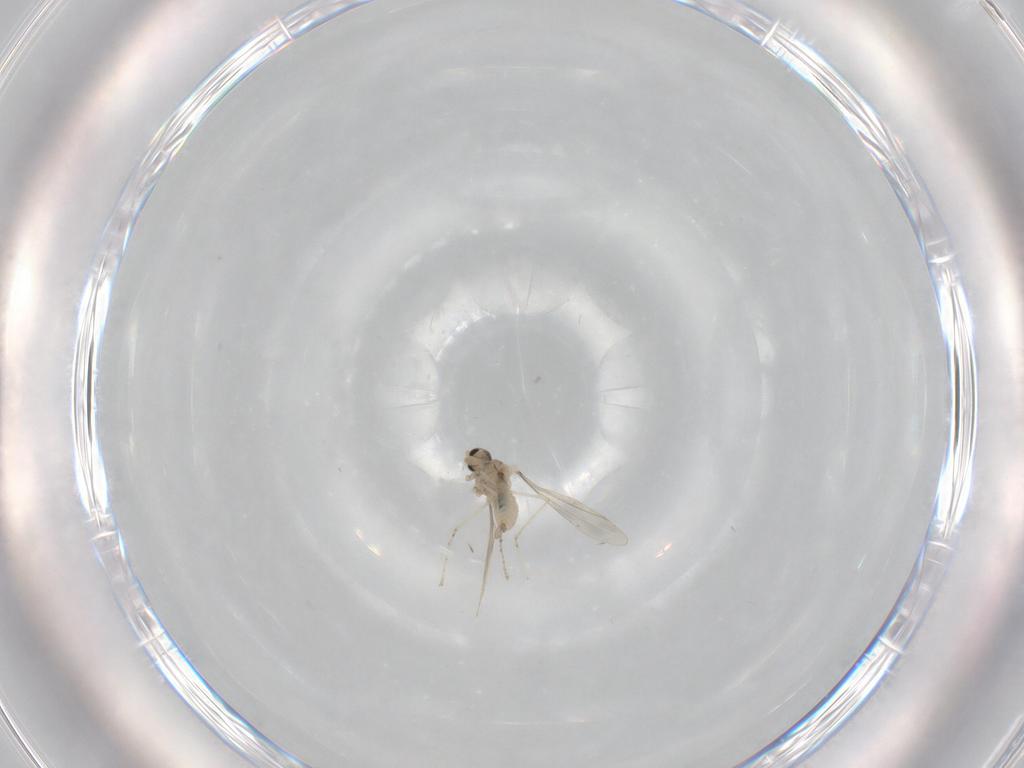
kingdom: Animalia
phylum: Arthropoda
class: Insecta
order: Diptera
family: Cecidomyiidae
